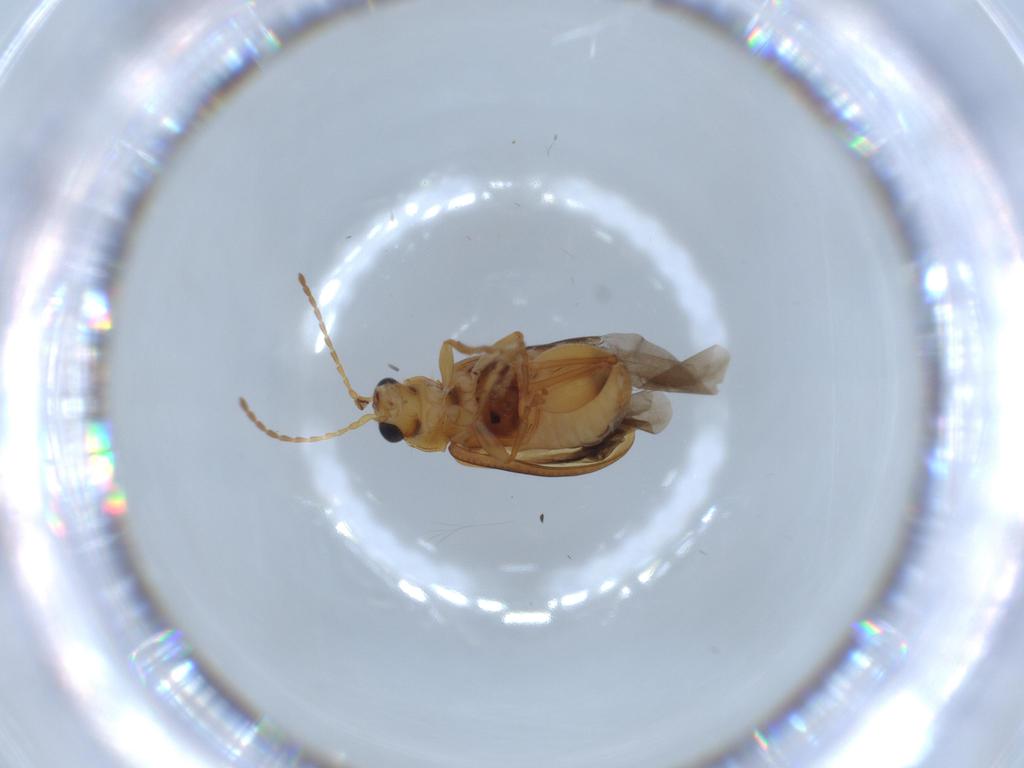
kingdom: Animalia
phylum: Arthropoda
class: Insecta
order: Coleoptera
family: Chrysomelidae
